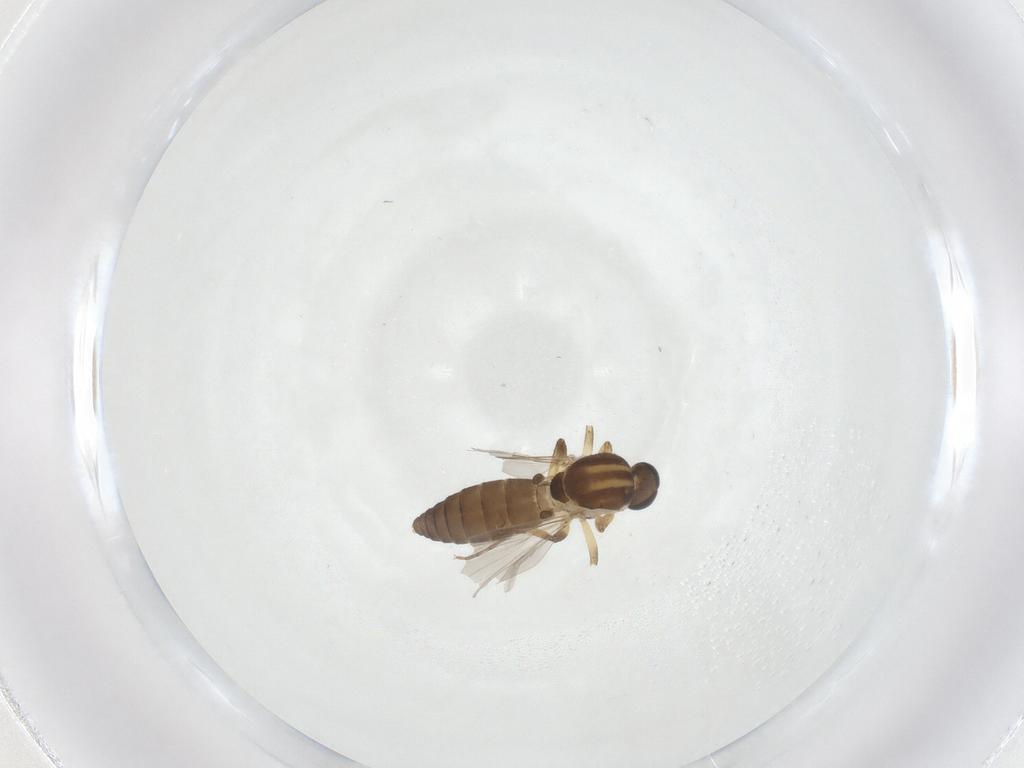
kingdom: Animalia
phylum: Arthropoda
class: Insecta
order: Diptera
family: Ceratopogonidae
